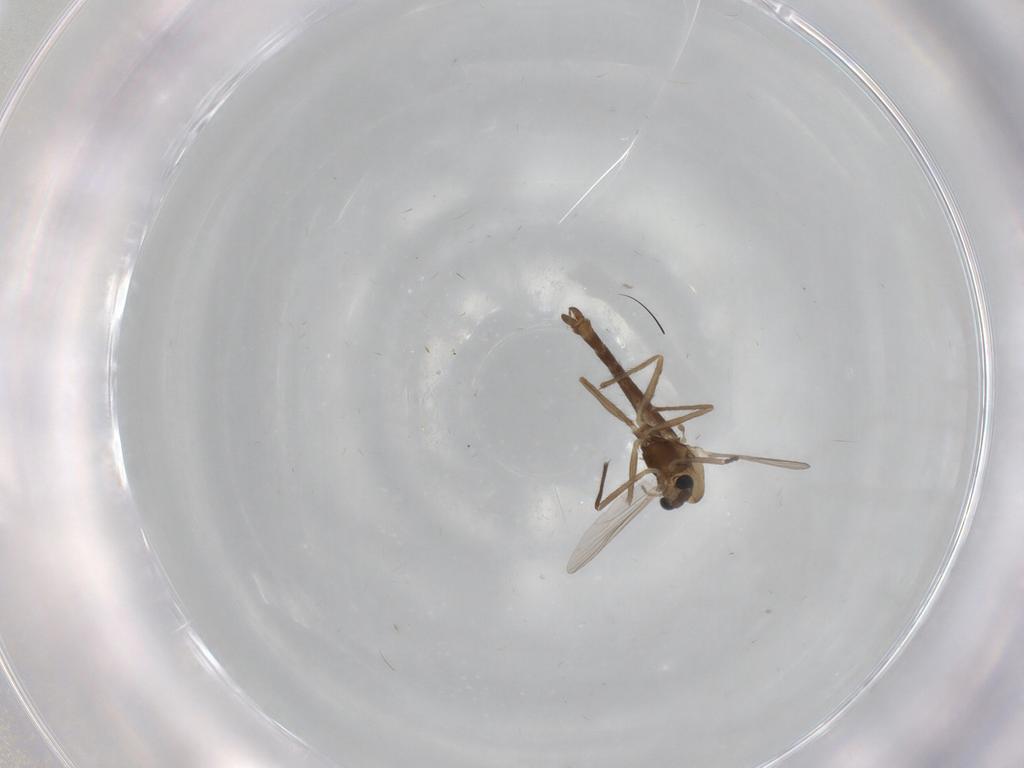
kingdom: Animalia
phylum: Arthropoda
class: Insecta
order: Diptera
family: Chironomidae
